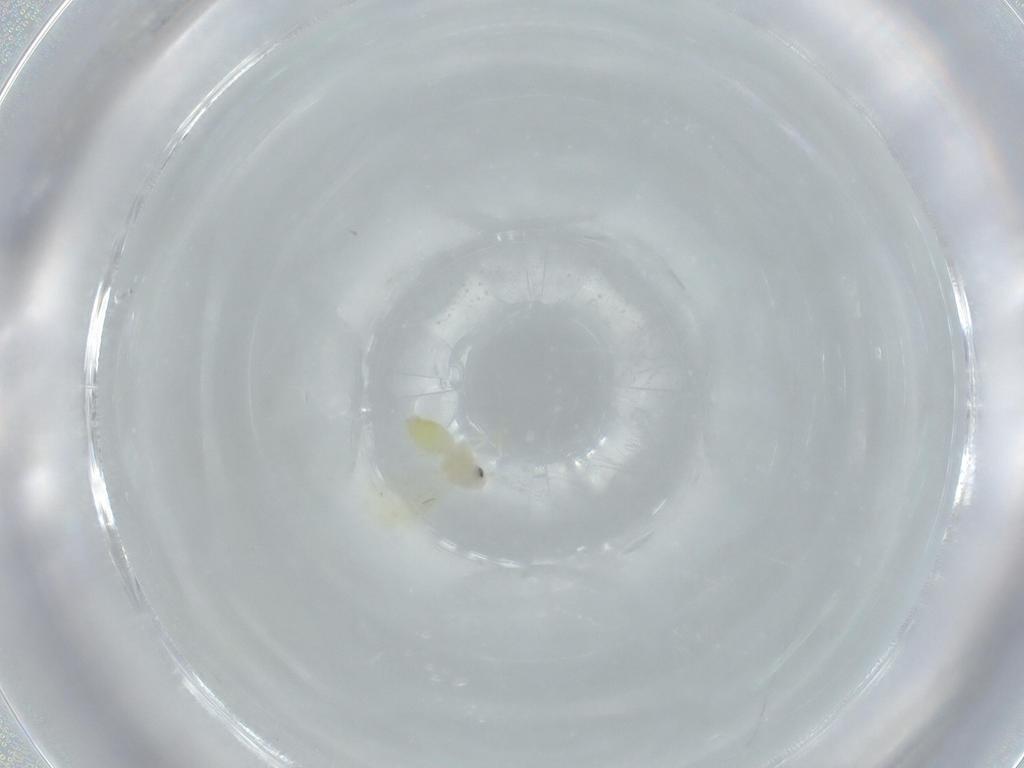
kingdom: Animalia
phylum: Arthropoda
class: Insecta
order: Hemiptera
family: Aleyrodidae
